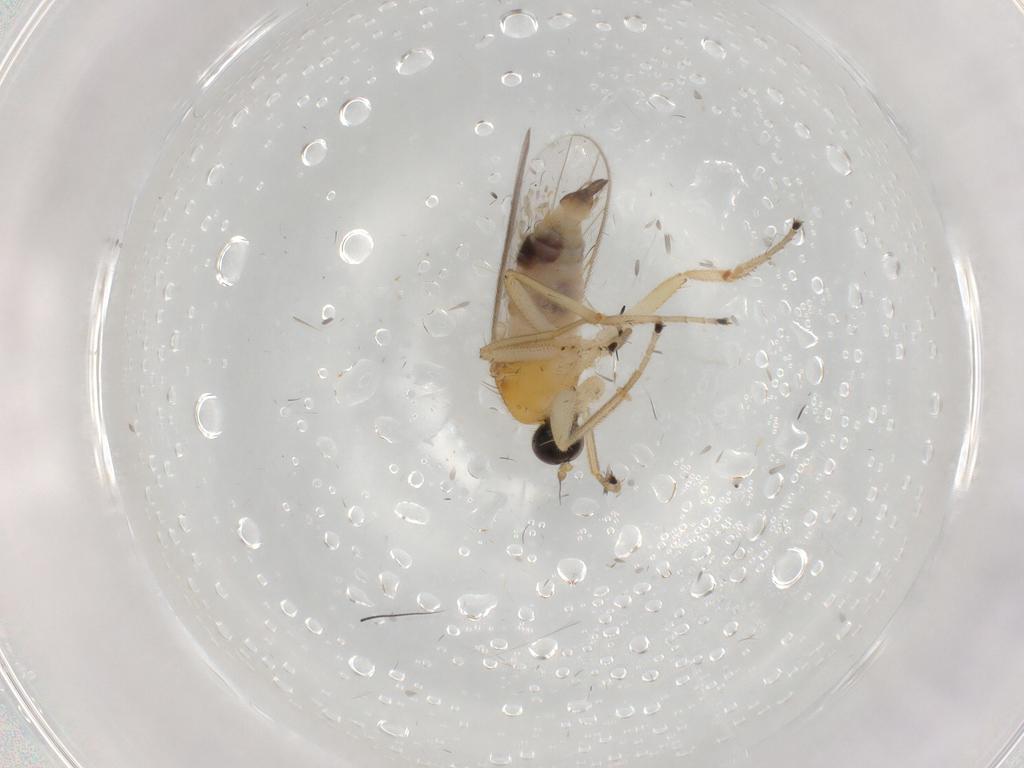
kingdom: Animalia
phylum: Arthropoda
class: Insecta
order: Diptera
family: Hybotidae
